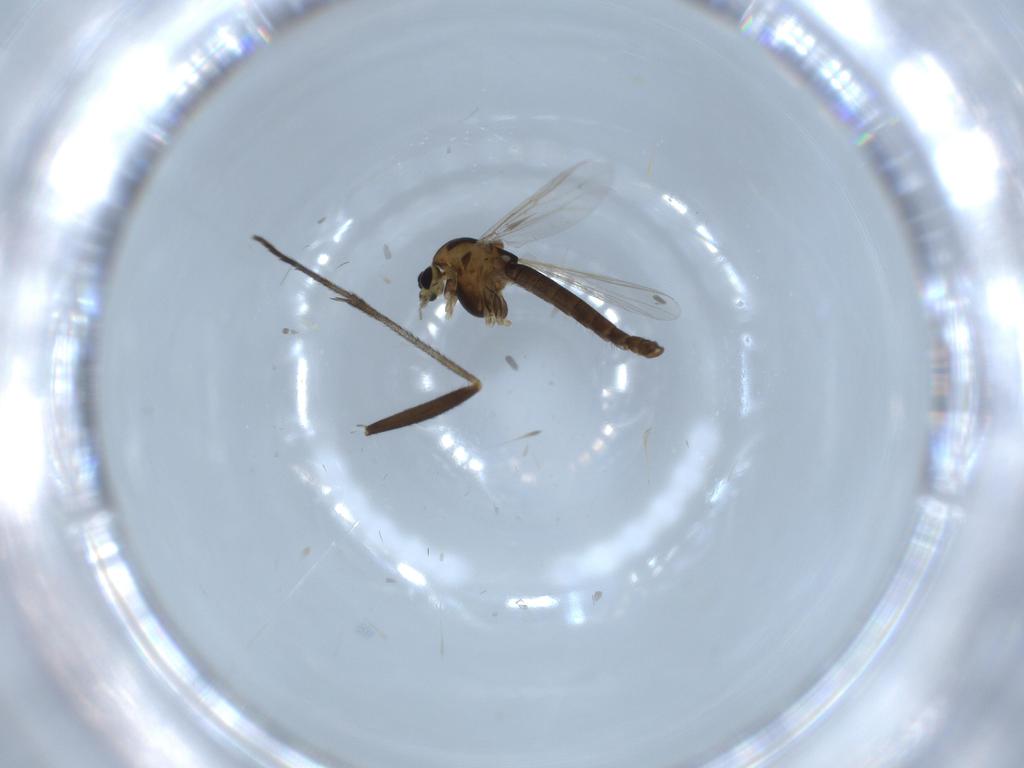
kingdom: Animalia
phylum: Arthropoda
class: Insecta
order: Diptera
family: Chironomidae
